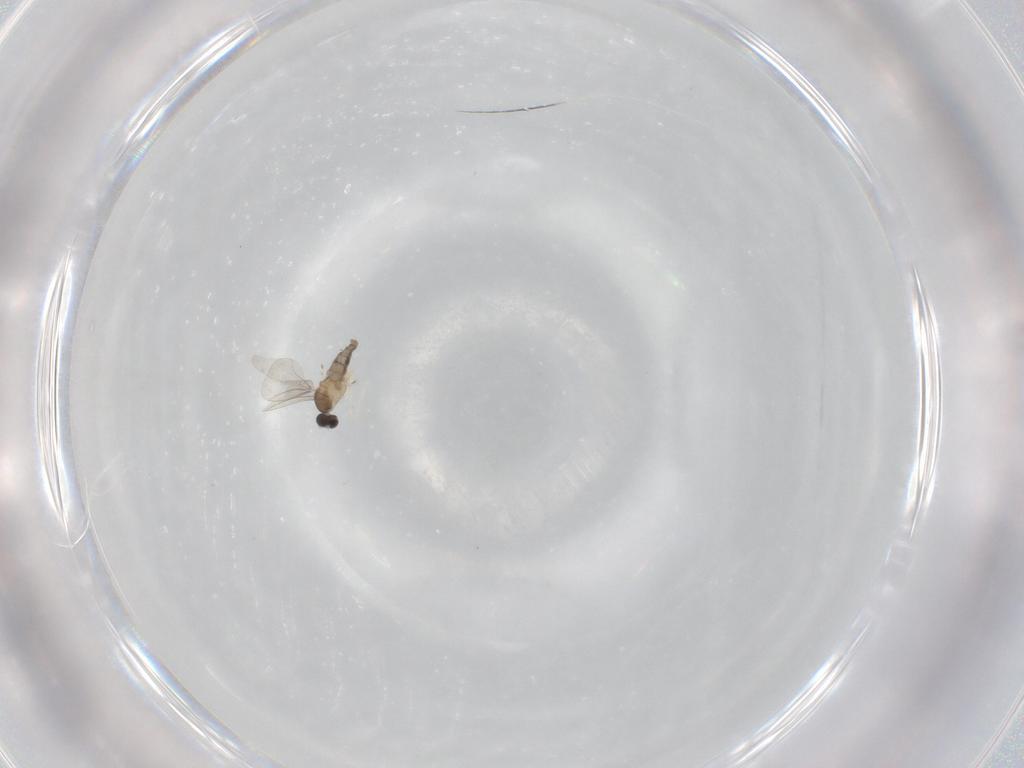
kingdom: Animalia
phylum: Arthropoda
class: Insecta
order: Diptera
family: Cecidomyiidae
